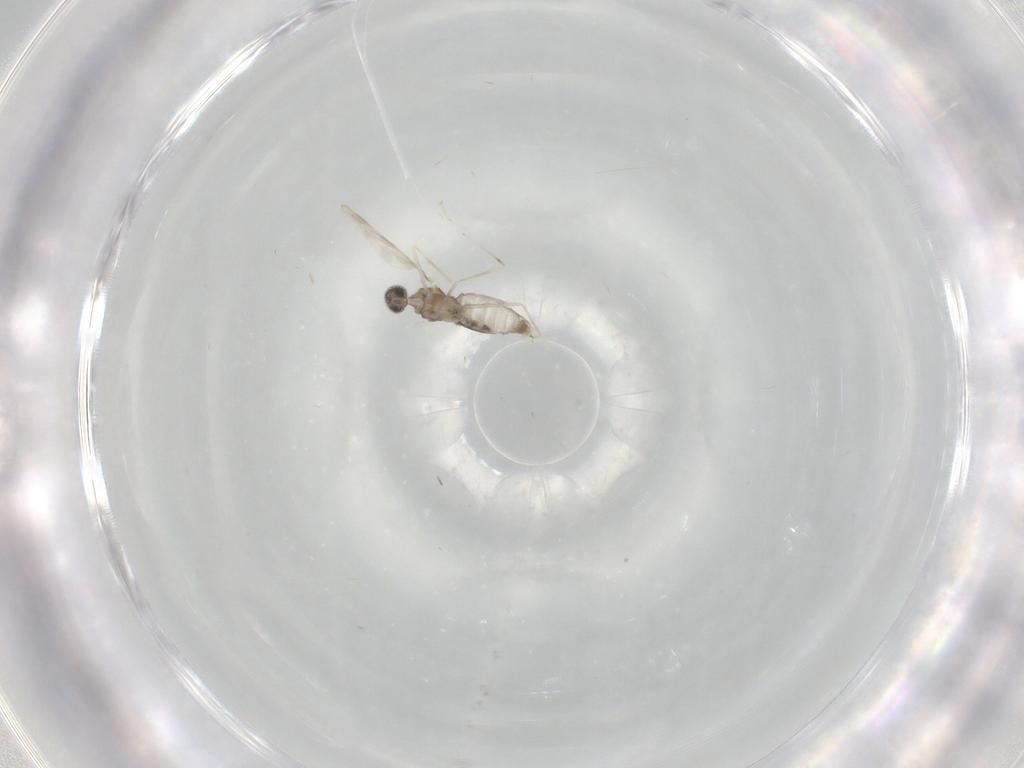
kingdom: Animalia
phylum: Arthropoda
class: Insecta
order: Diptera
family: Cecidomyiidae
